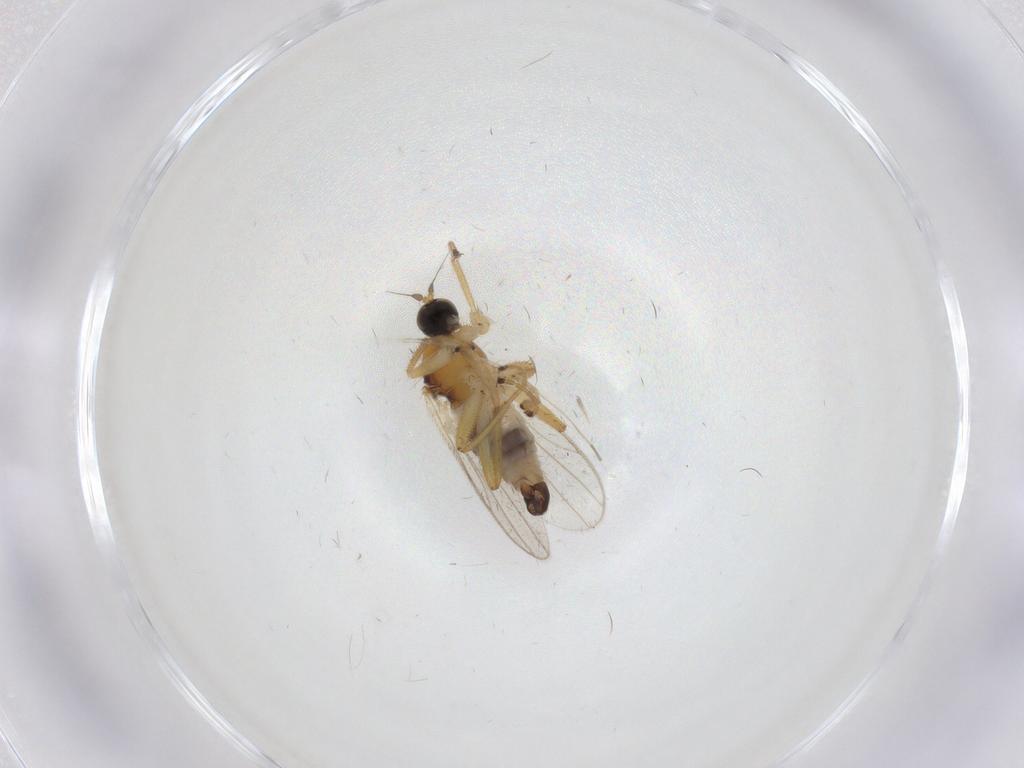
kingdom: Animalia
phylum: Arthropoda
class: Insecta
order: Diptera
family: Hybotidae
